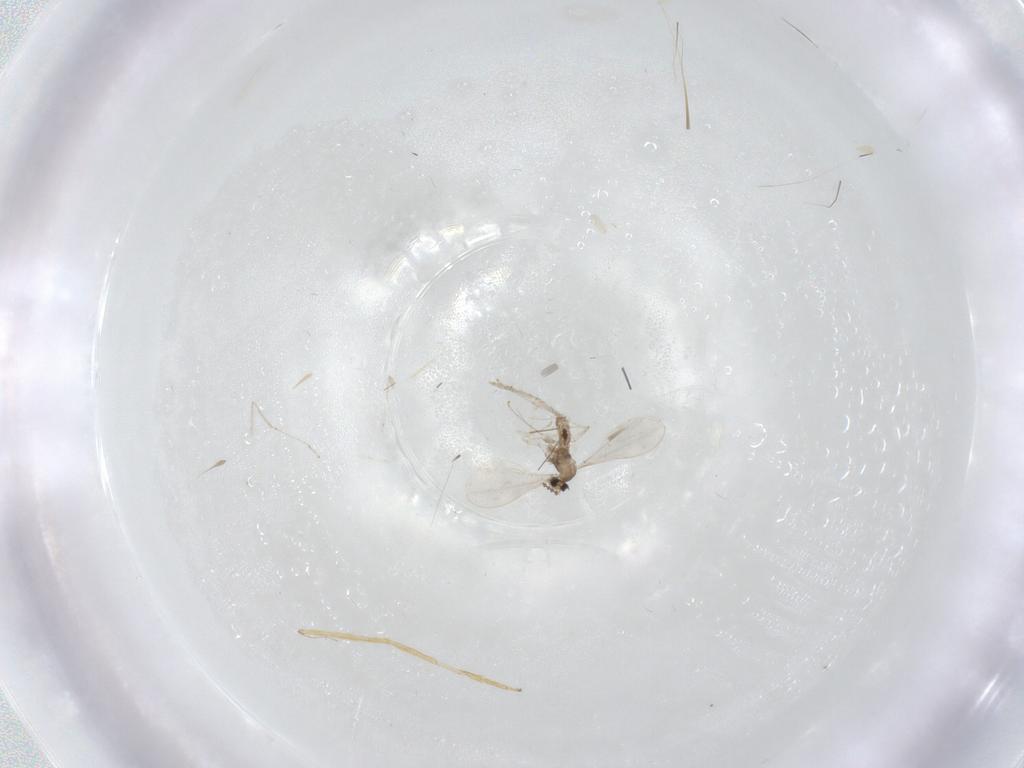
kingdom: Animalia
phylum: Arthropoda
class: Insecta
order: Diptera
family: Chironomidae
